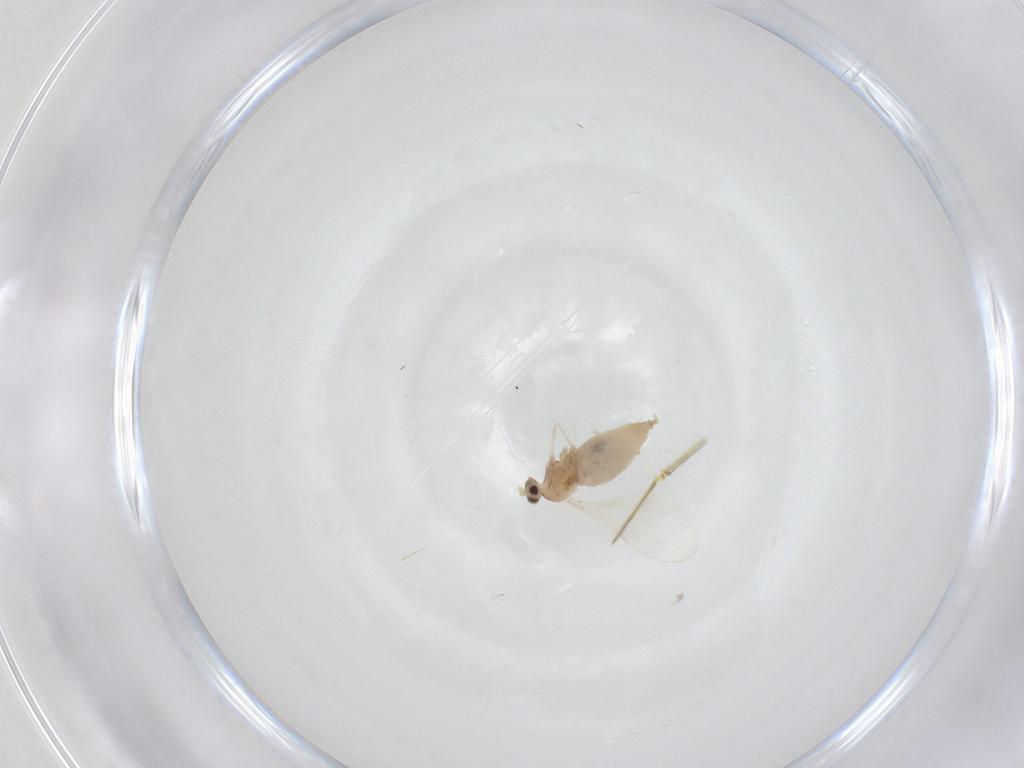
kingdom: Animalia
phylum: Arthropoda
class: Insecta
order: Diptera
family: Cecidomyiidae
